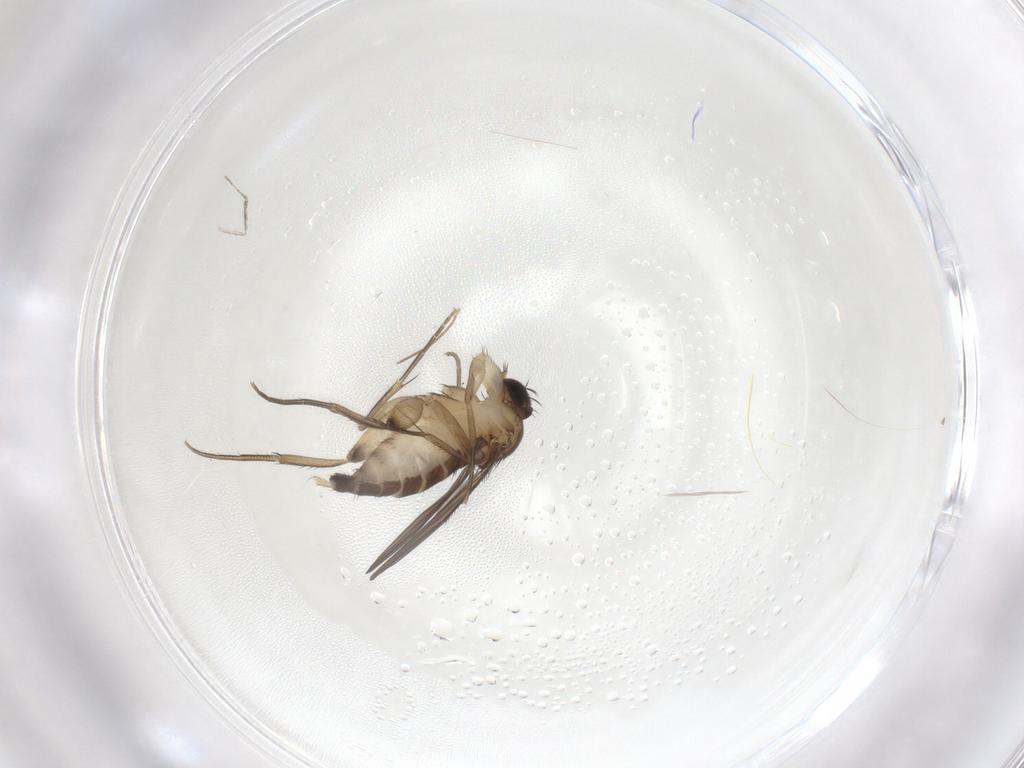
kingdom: Animalia
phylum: Arthropoda
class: Insecta
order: Diptera
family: Phoridae
